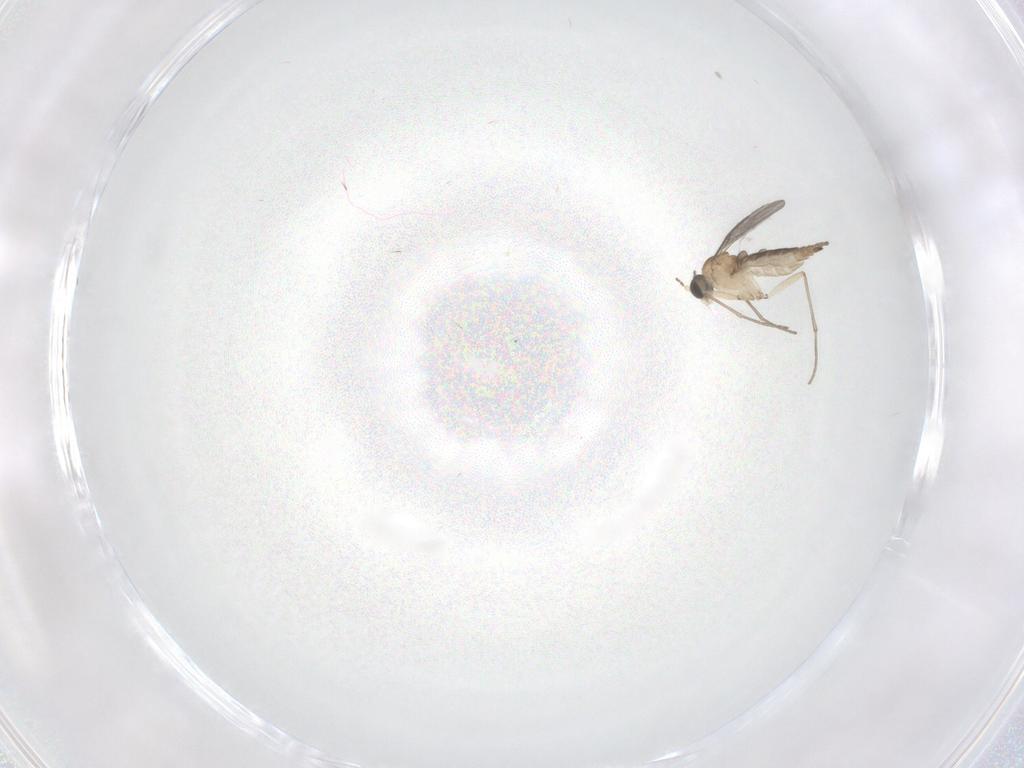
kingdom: Animalia
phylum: Arthropoda
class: Insecta
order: Diptera
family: Sciaridae
